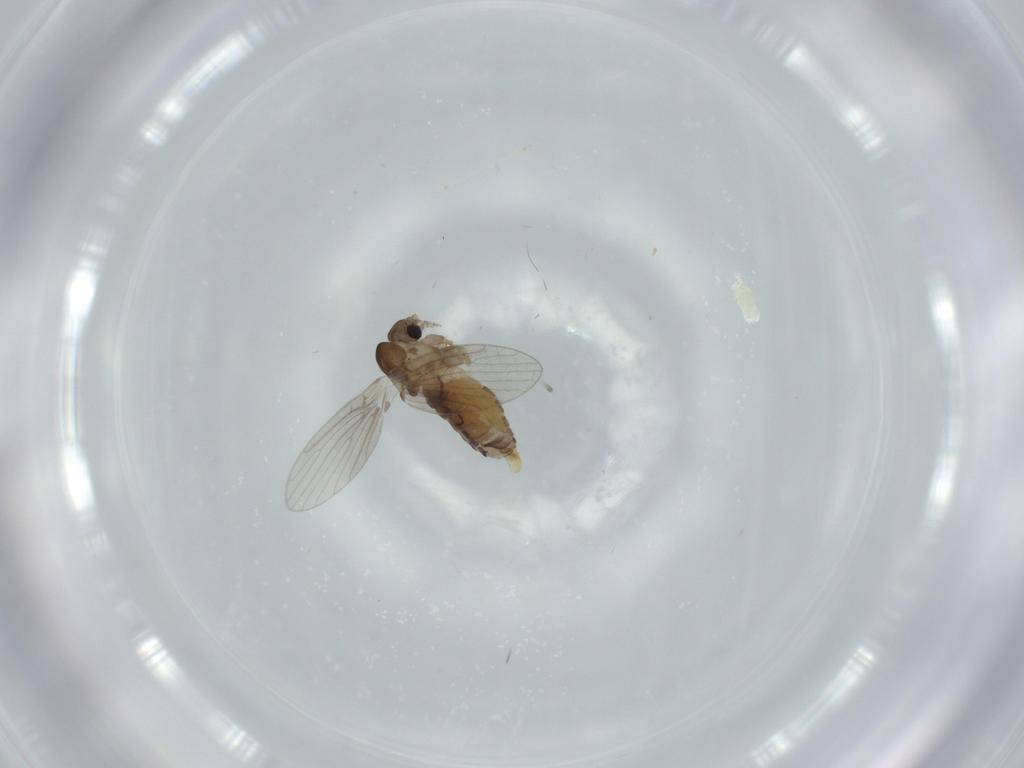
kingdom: Animalia
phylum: Arthropoda
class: Insecta
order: Diptera
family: Psychodidae
